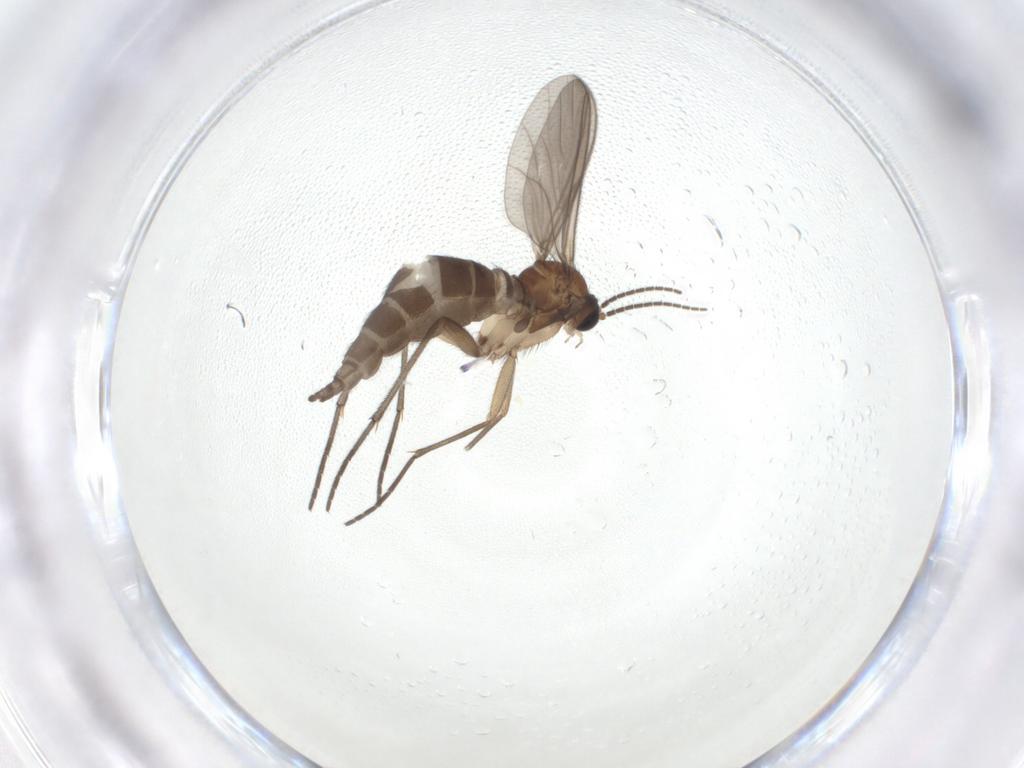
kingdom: Animalia
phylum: Arthropoda
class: Insecta
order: Diptera
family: Sciaridae
